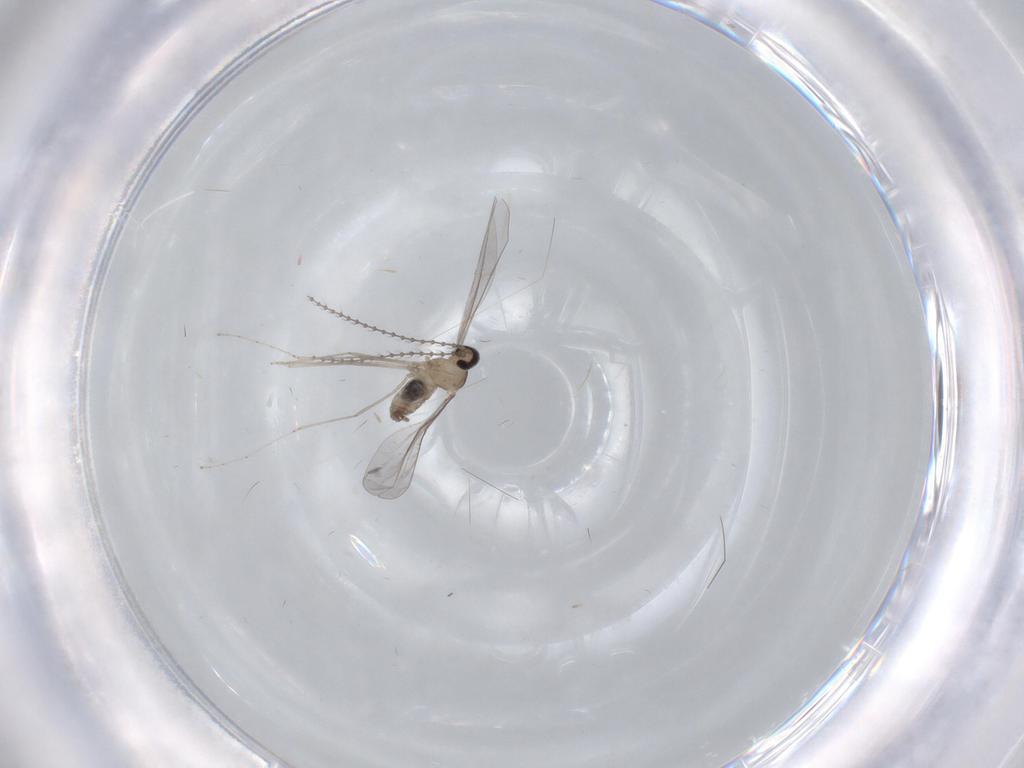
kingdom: Animalia
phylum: Arthropoda
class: Insecta
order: Diptera
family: Cecidomyiidae
